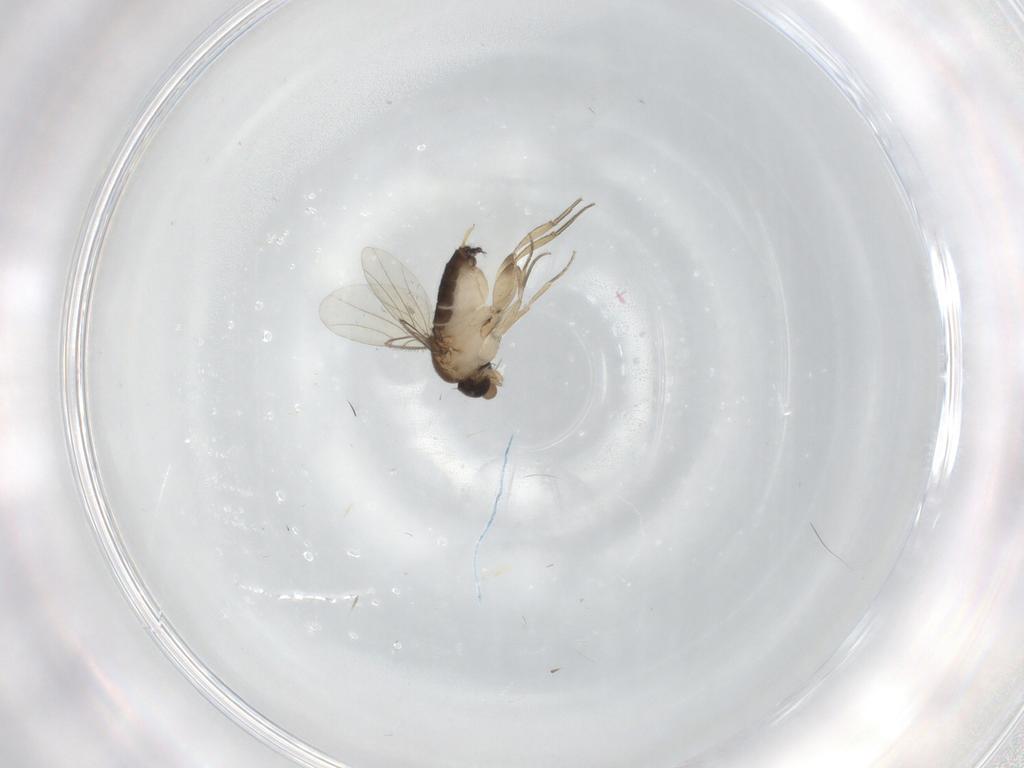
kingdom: Animalia
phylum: Arthropoda
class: Insecta
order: Diptera
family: Phoridae
